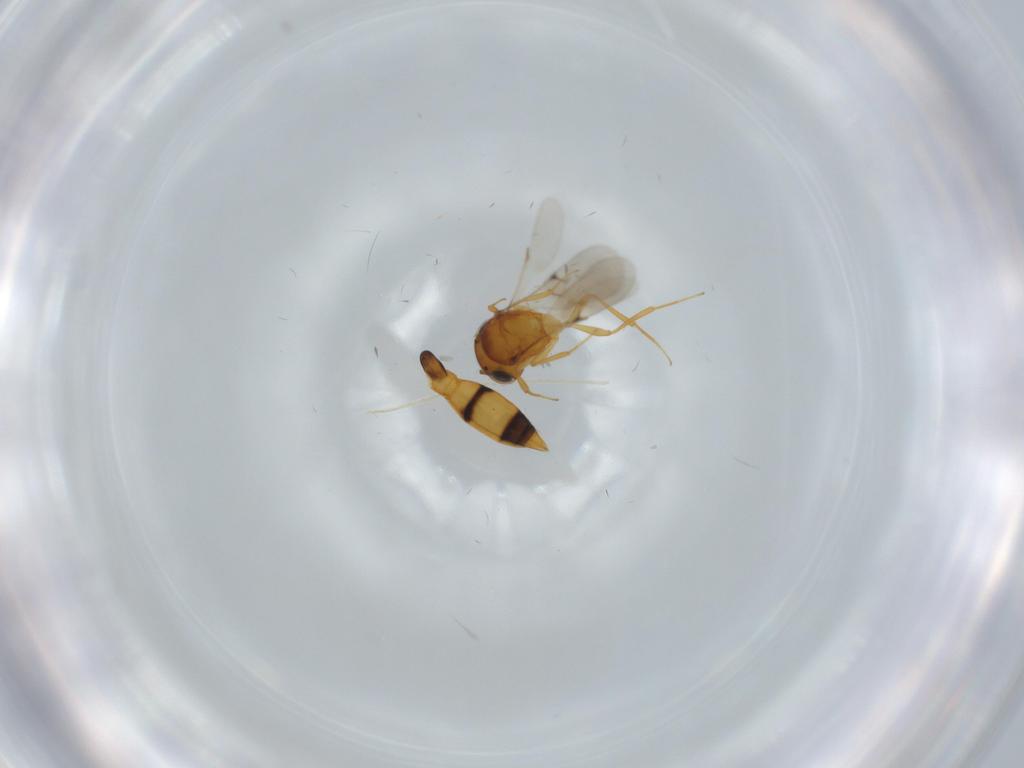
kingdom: Animalia
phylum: Arthropoda
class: Insecta
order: Hymenoptera
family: Scelionidae
